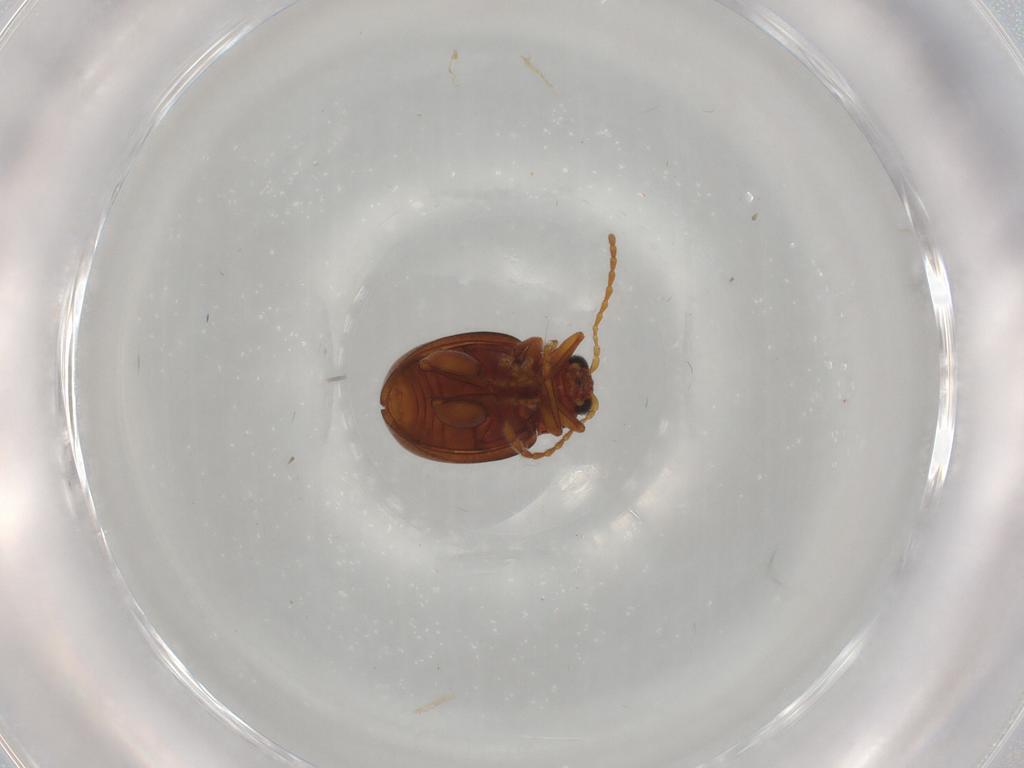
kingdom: Animalia
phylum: Arthropoda
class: Insecta
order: Coleoptera
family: Chrysomelidae
